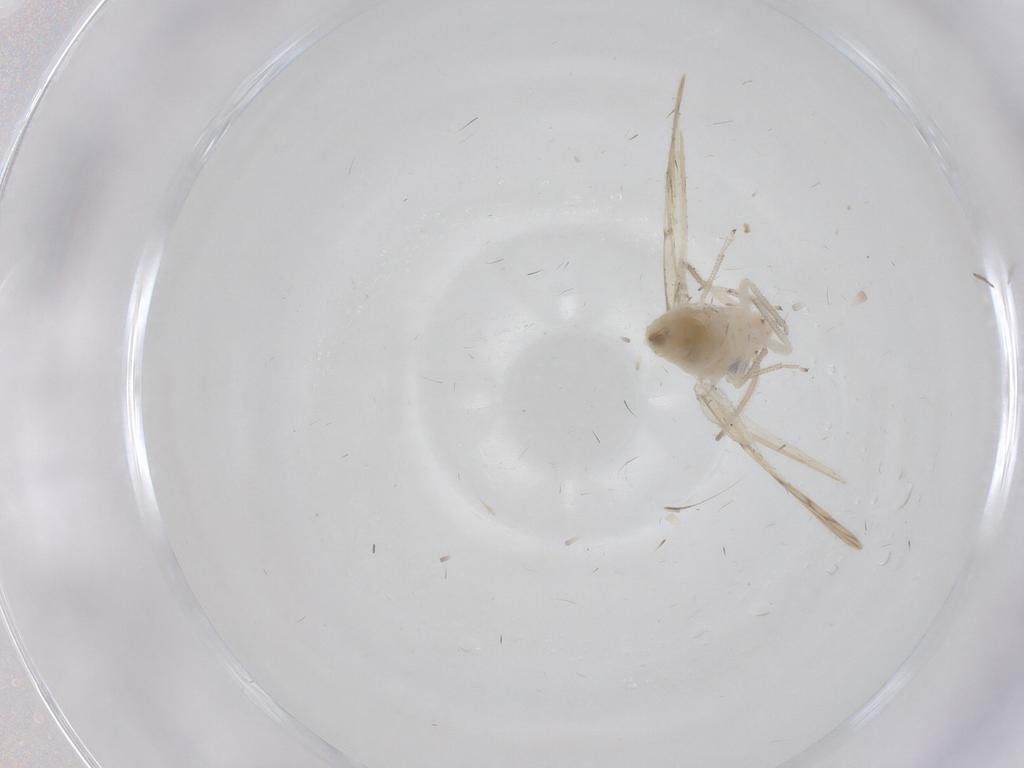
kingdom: Animalia
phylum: Arthropoda
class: Insecta
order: Psocodea
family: Caeciliusidae
